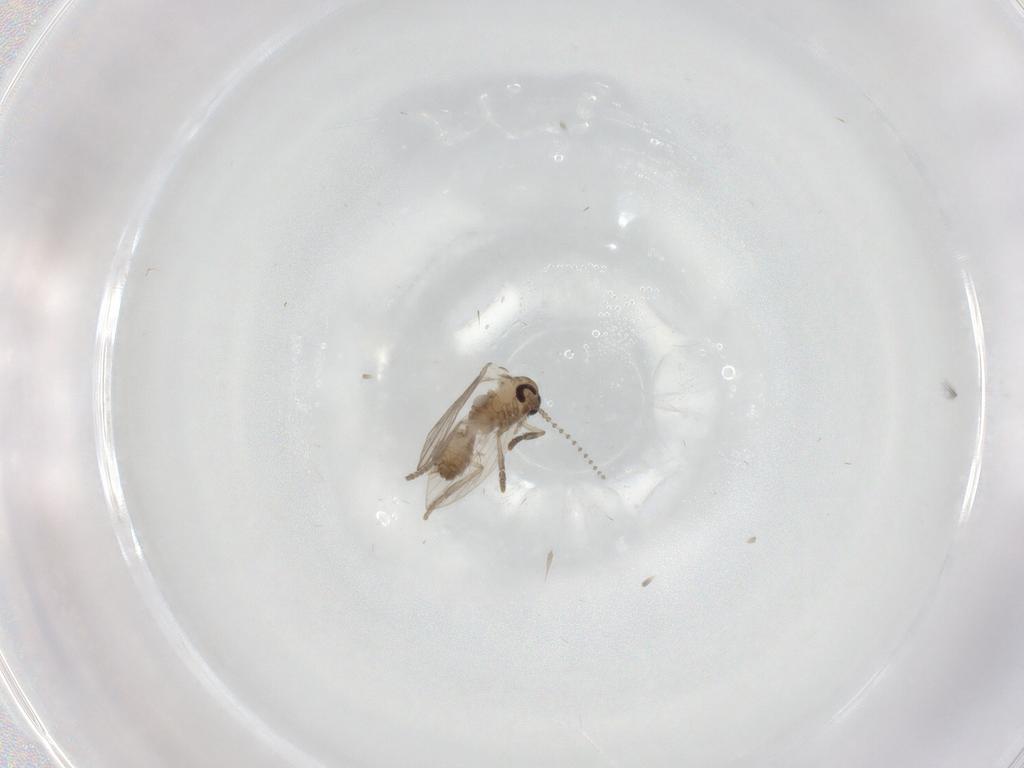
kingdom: Animalia
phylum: Arthropoda
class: Insecta
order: Diptera
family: Psychodidae
